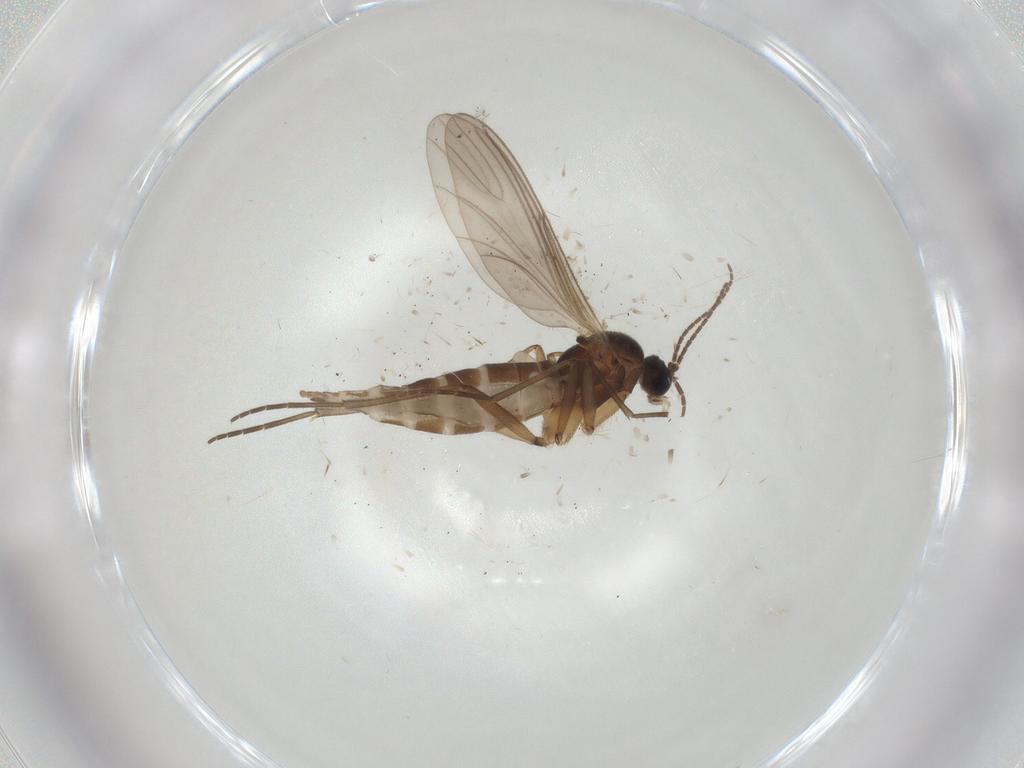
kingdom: Animalia
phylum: Arthropoda
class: Insecta
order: Diptera
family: Sciaridae
